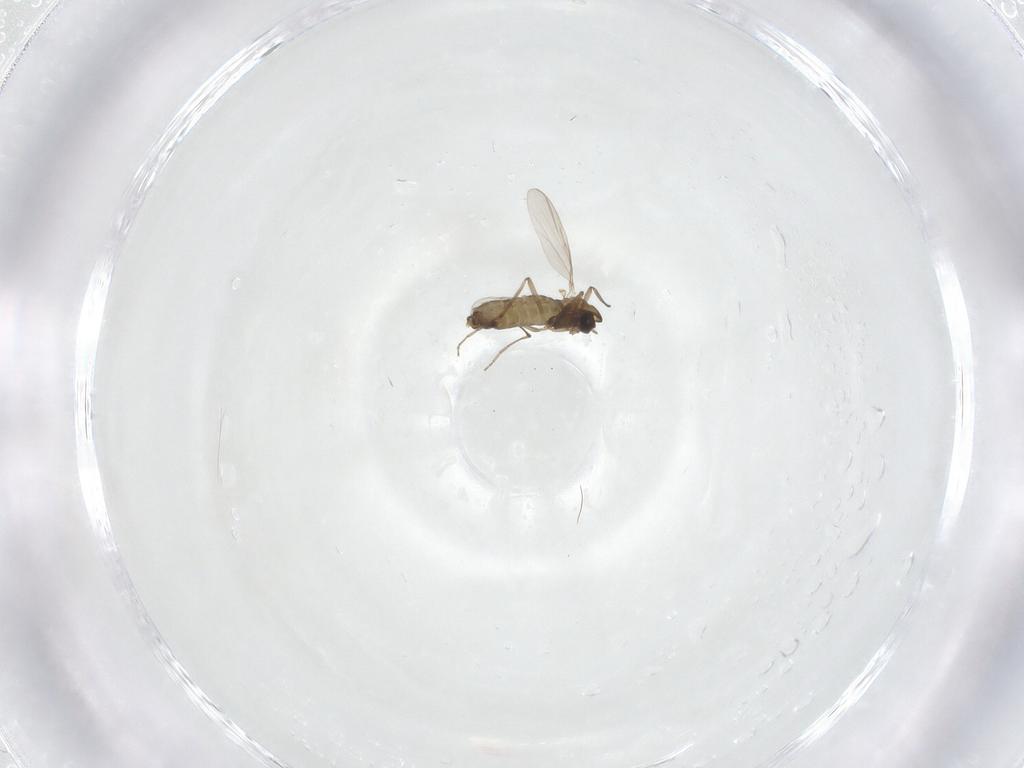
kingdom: Animalia
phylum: Arthropoda
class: Insecta
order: Diptera
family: Chironomidae
